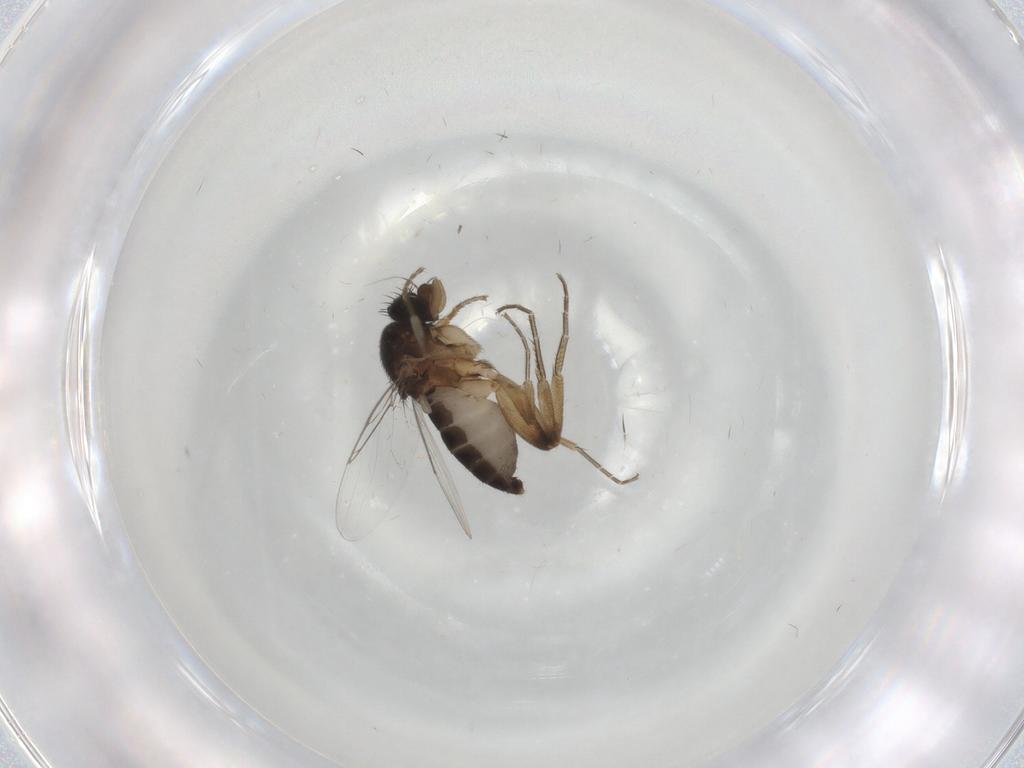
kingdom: Animalia
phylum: Arthropoda
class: Insecta
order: Diptera
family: Phoridae
